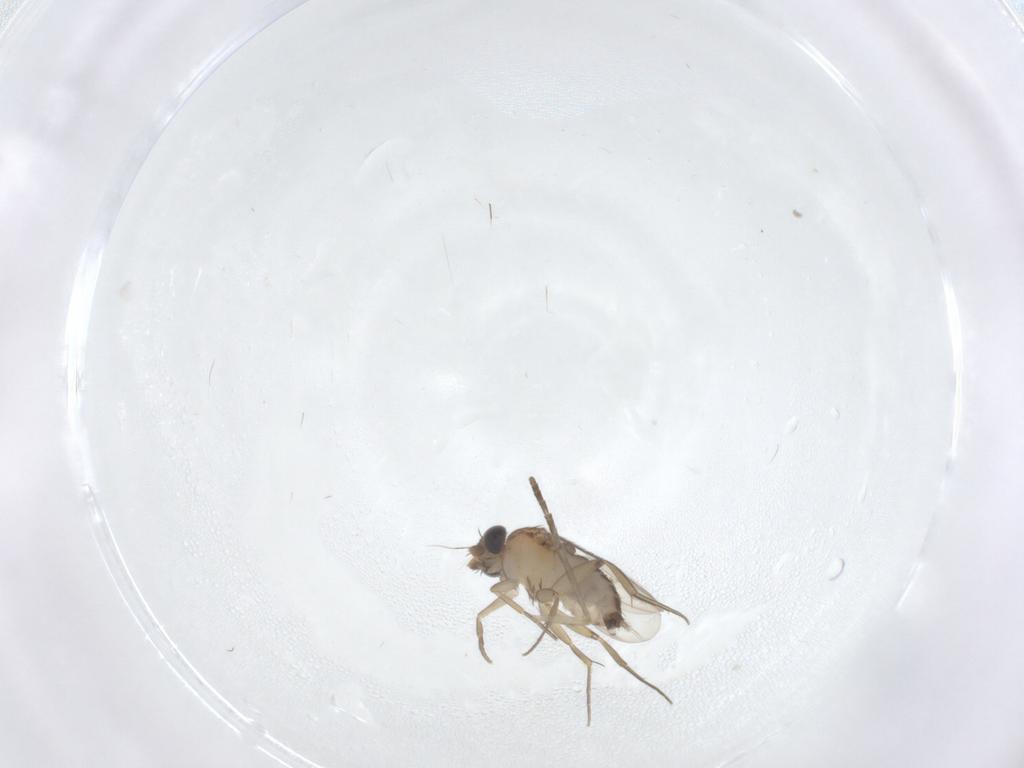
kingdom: Animalia
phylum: Arthropoda
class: Insecta
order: Diptera
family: Phoridae
